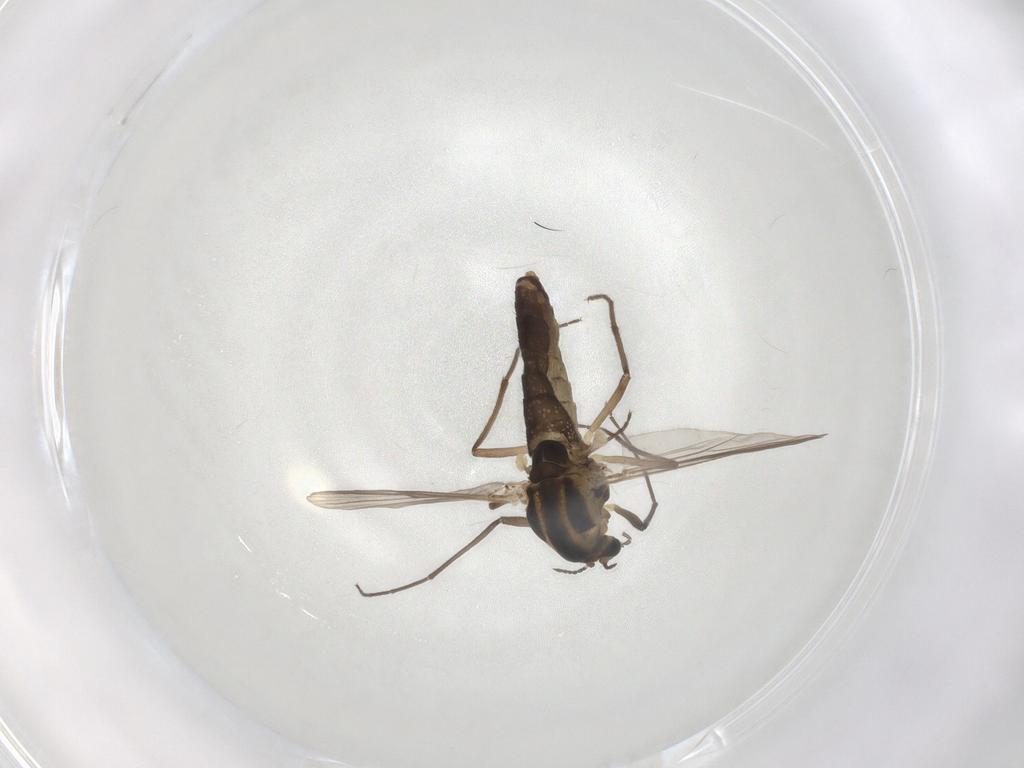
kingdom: Animalia
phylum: Arthropoda
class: Insecta
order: Diptera
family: Chironomidae
